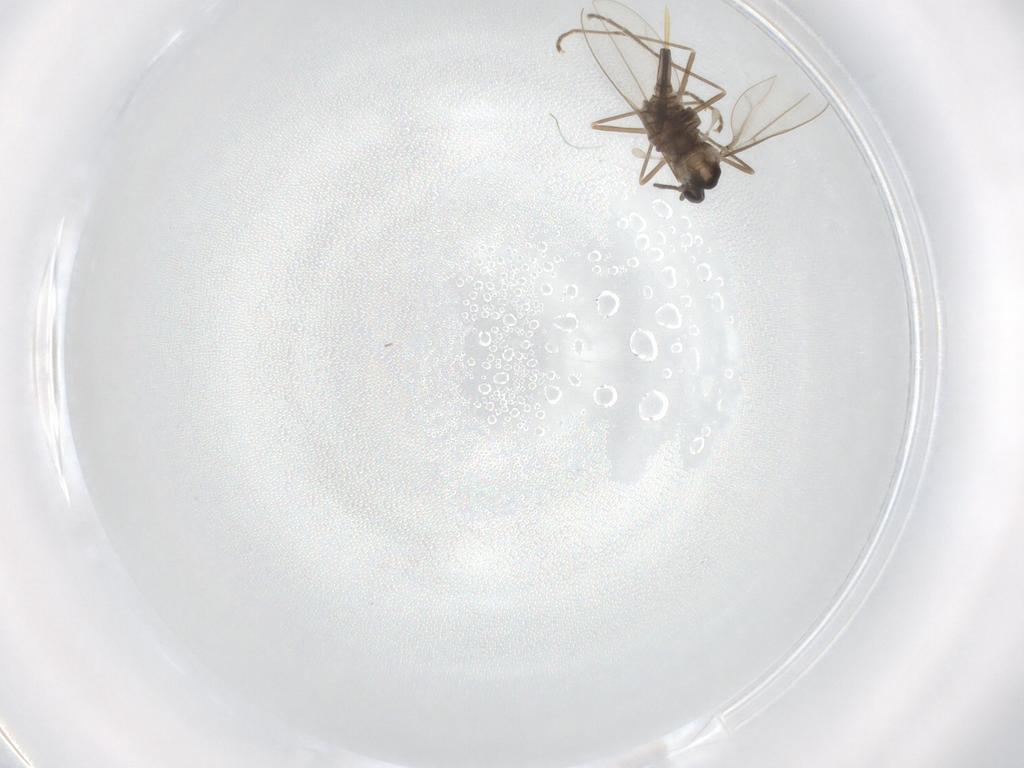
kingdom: Animalia
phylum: Arthropoda
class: Insecta
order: Diptera
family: Cecidomyiidae
